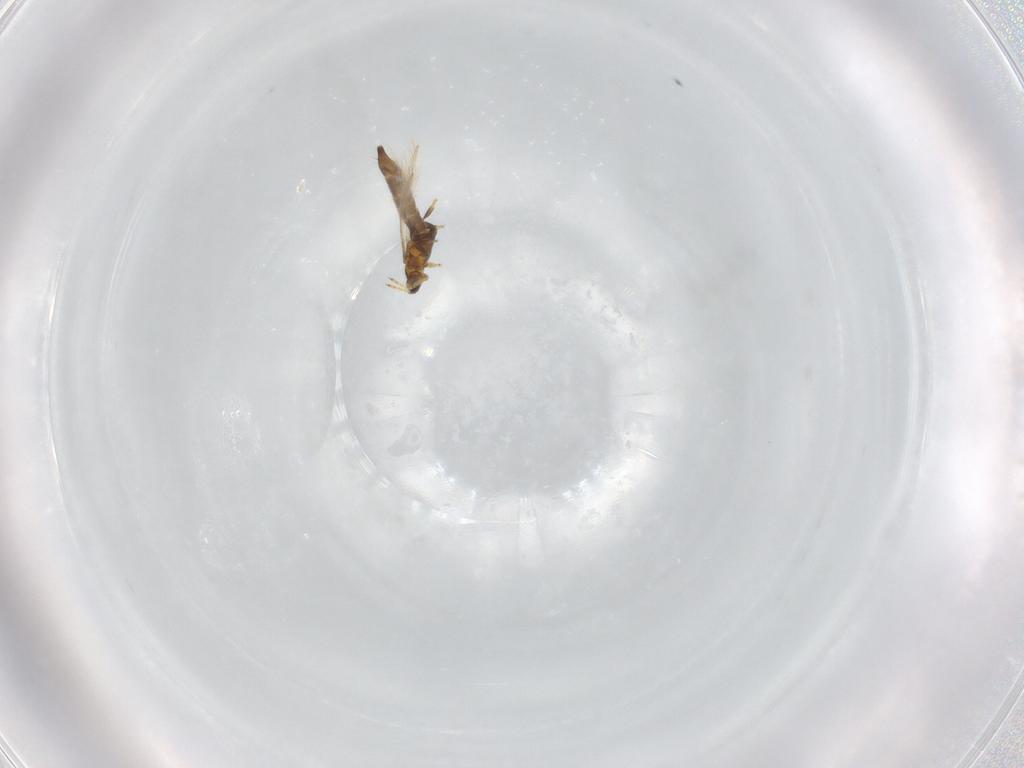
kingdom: Animalia
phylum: Arthropoda
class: Insecta
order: Thysanoptera
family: Thripidae
